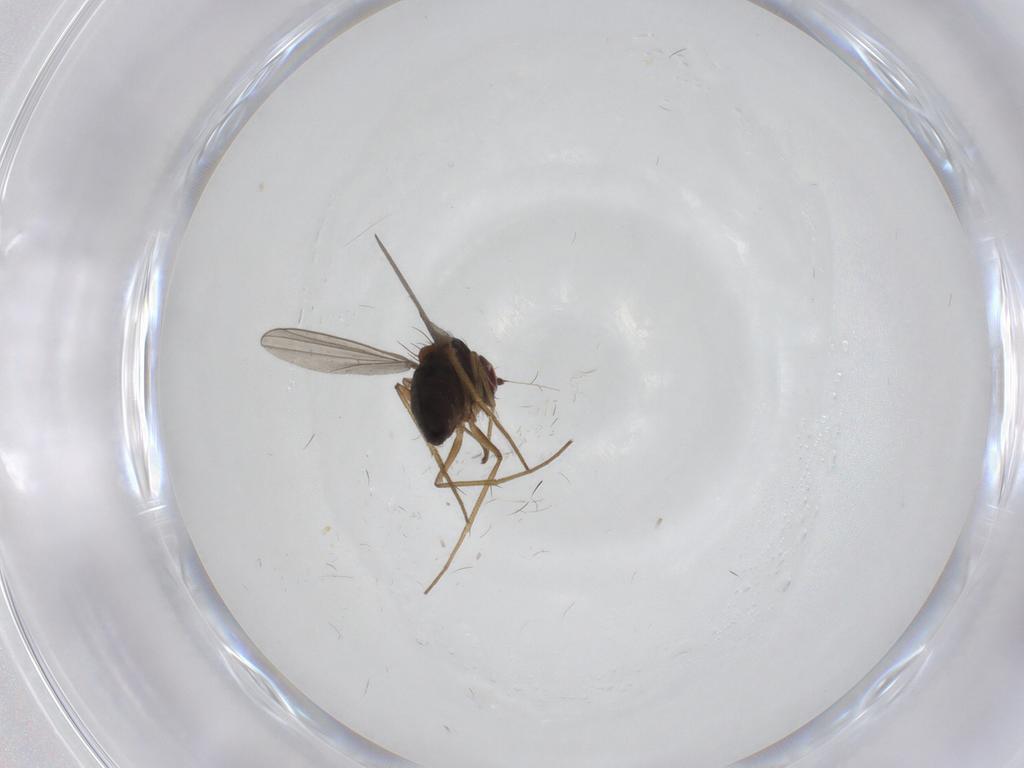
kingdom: Animalia
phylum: Arthropoda
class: Insecta
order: Diptera
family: Dolichopodidae
